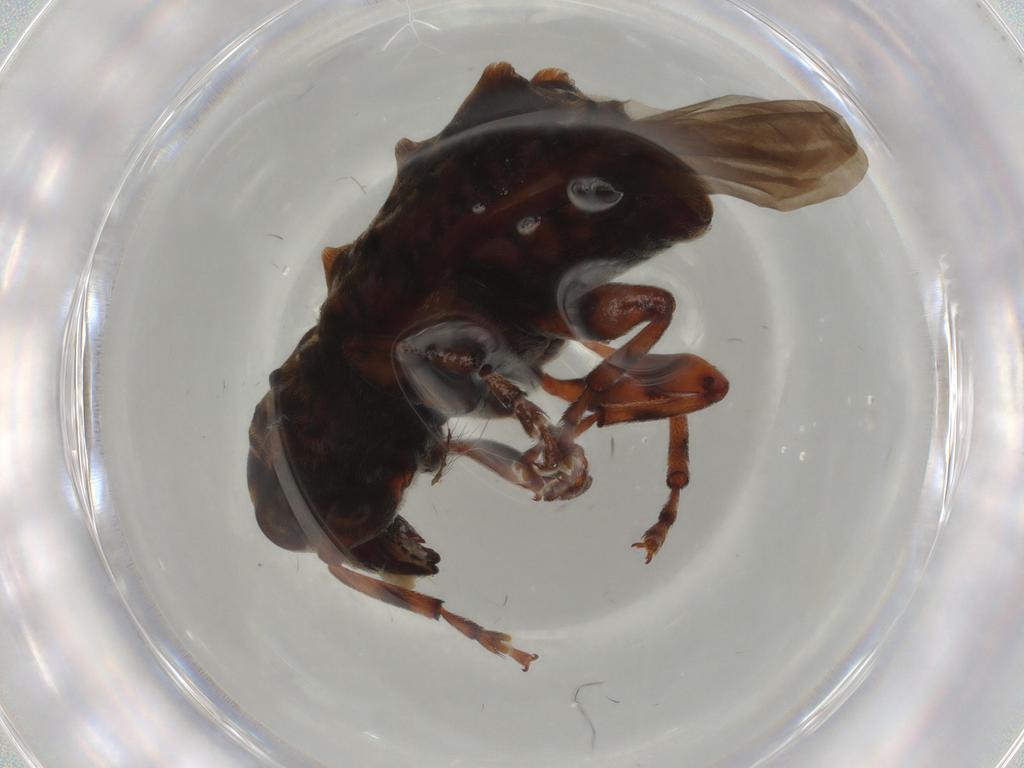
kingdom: Animalia
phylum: Arthropoda
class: Insecta
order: Coleoptera
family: Anthribidae
